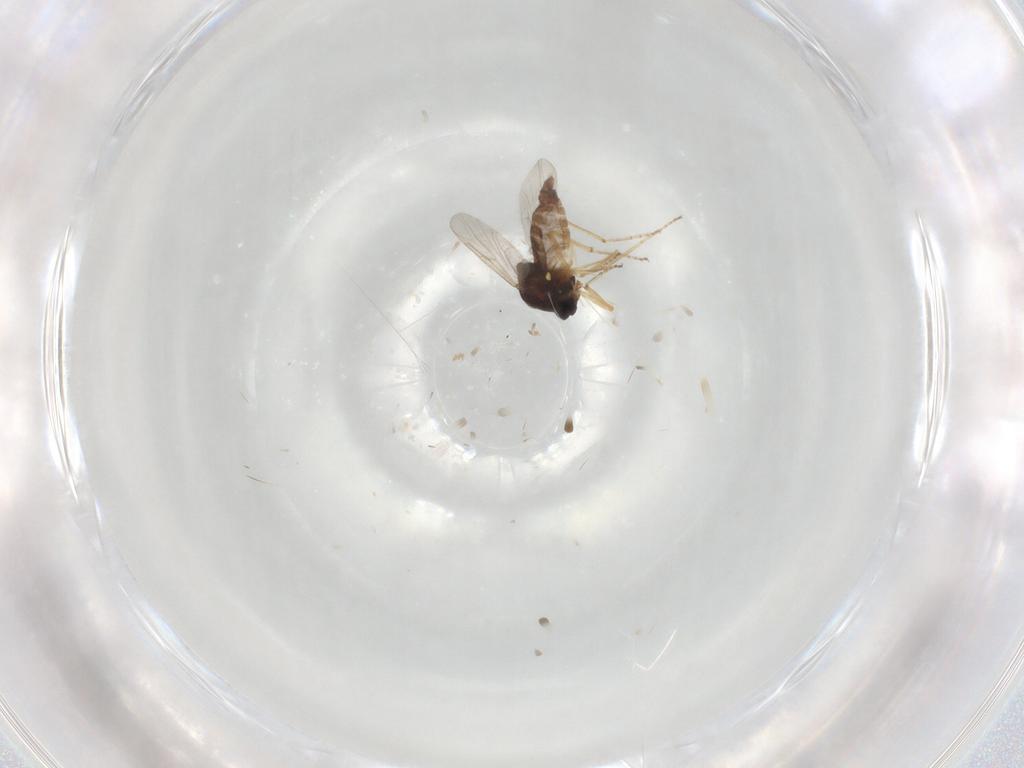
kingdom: Animalia
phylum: Arthropoda
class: Insecta
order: Diptera
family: Ceratopogonidae
